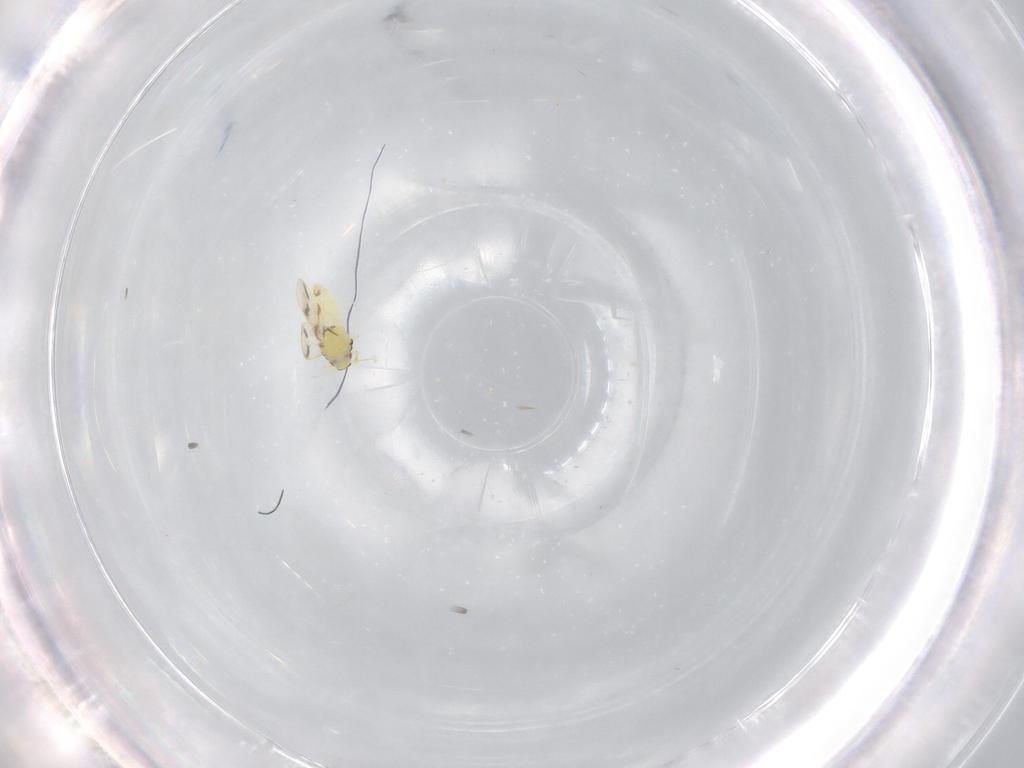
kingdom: Animalia
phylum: Arthropoda
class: Insecta
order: Hemiptera
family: Aleyrodidae
